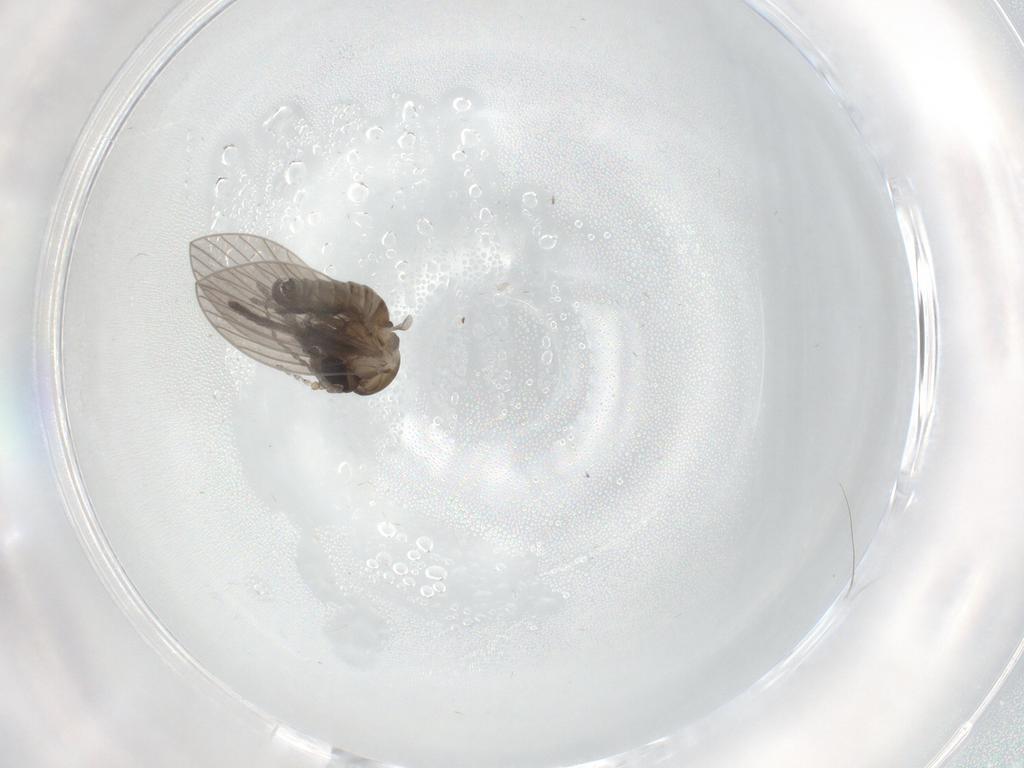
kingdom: Animalia
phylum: Arthropoda
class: Insecta
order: Diptera
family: Psychodidae
